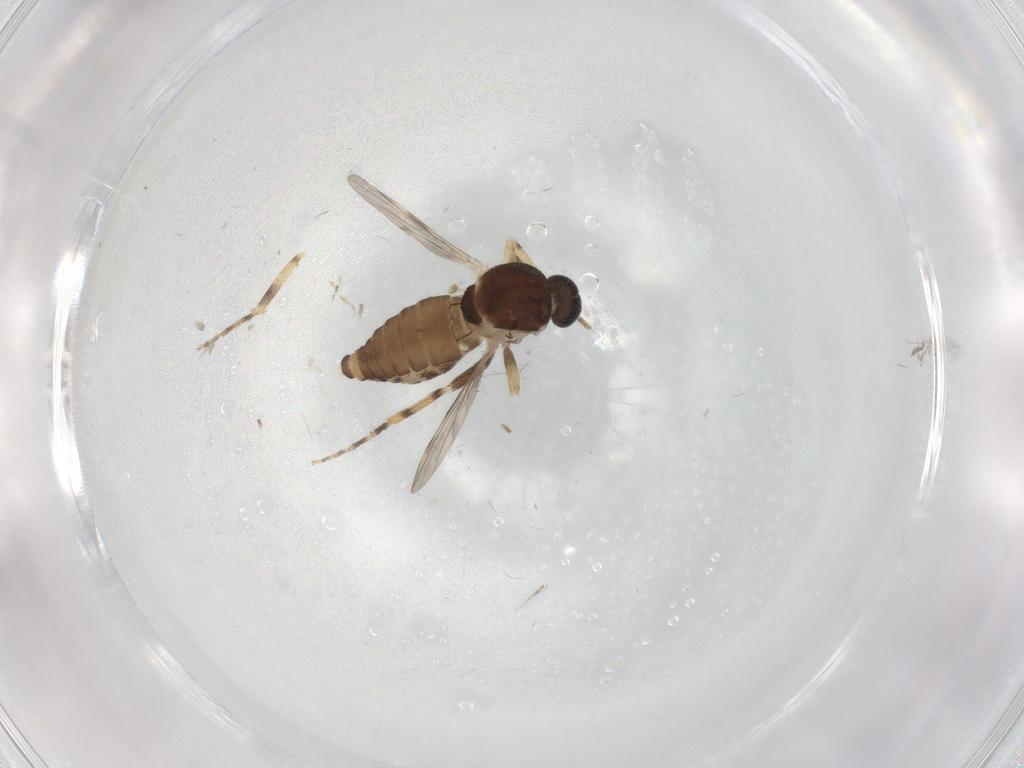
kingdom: Animalia
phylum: Arthropoda
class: Insecta
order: Diptera
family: Ceratopogonidae
